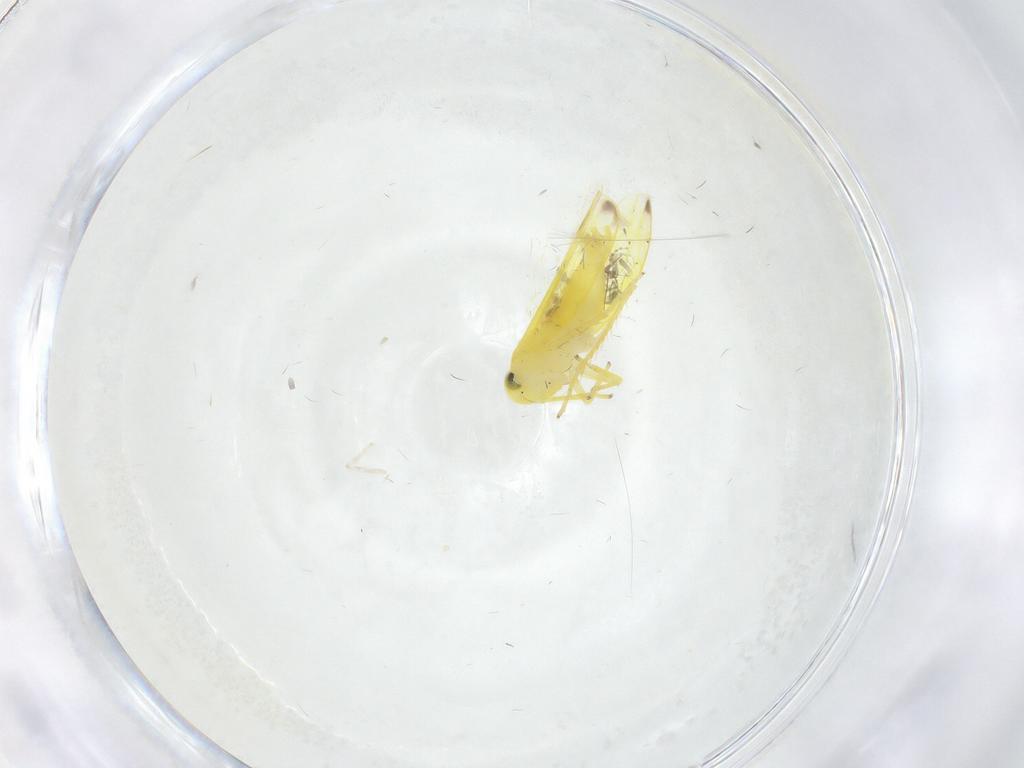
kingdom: Animalia
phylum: Arthropoda
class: Insecta
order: Hemiptera
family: Cicadellidae
